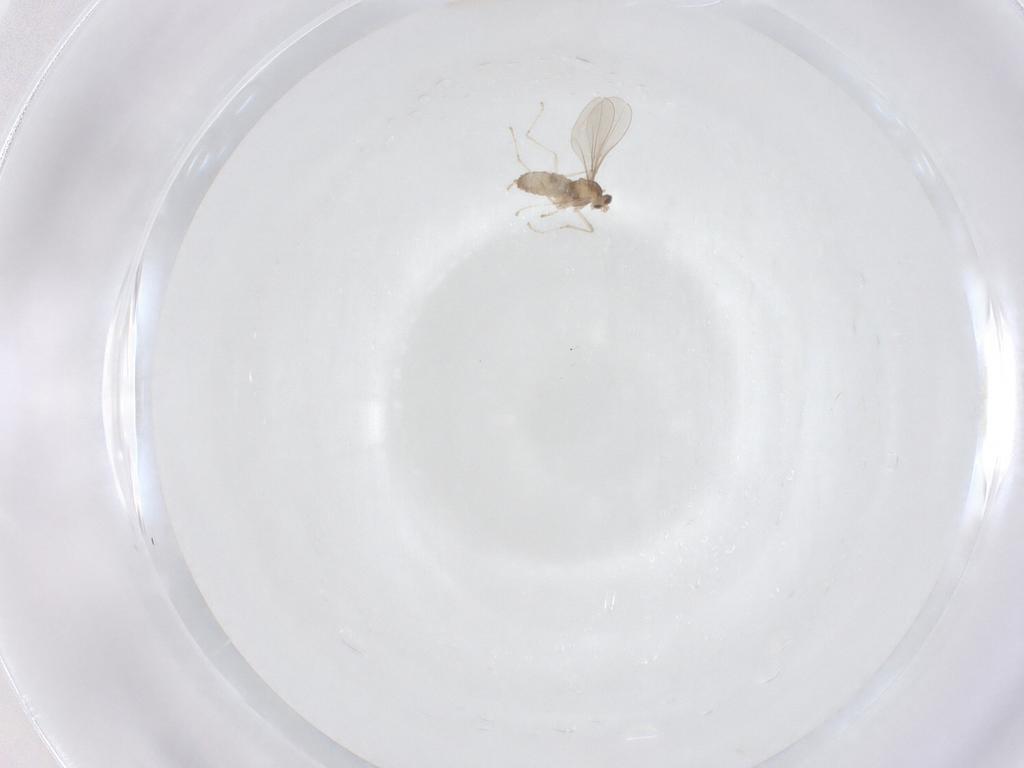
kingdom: Animalia
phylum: Arthropoda
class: Insecta
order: Diptera
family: Cecidomyiidae
